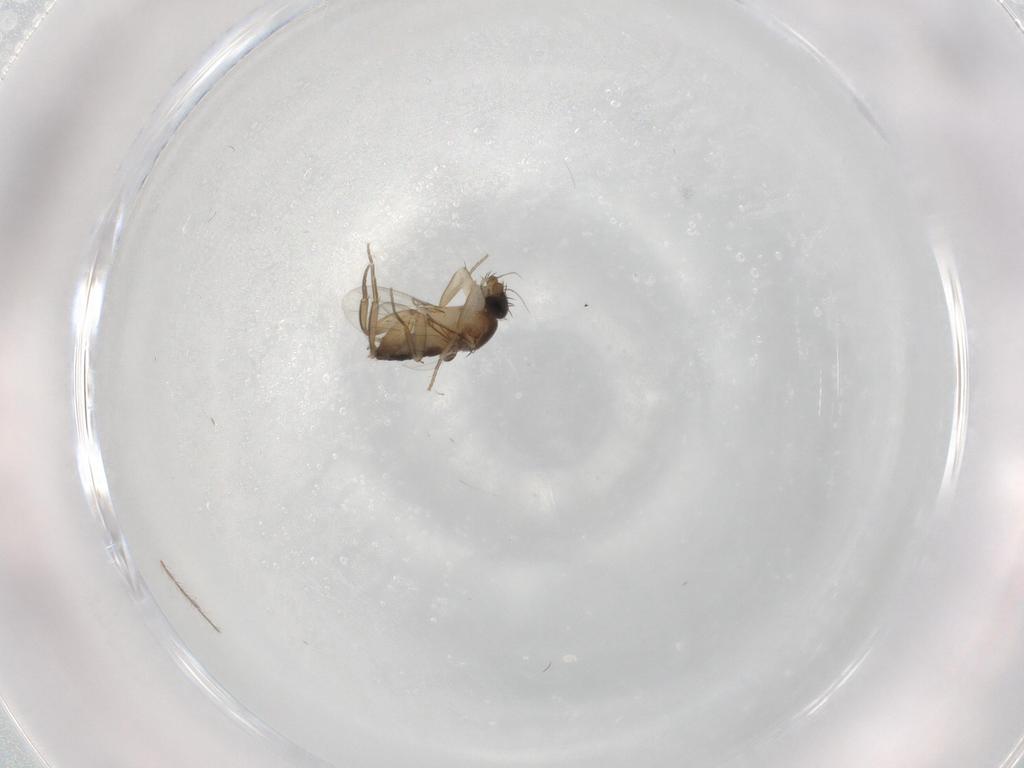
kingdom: Animalia
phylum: Arthropoda
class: Insecta
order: Diptera
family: Phoridae
